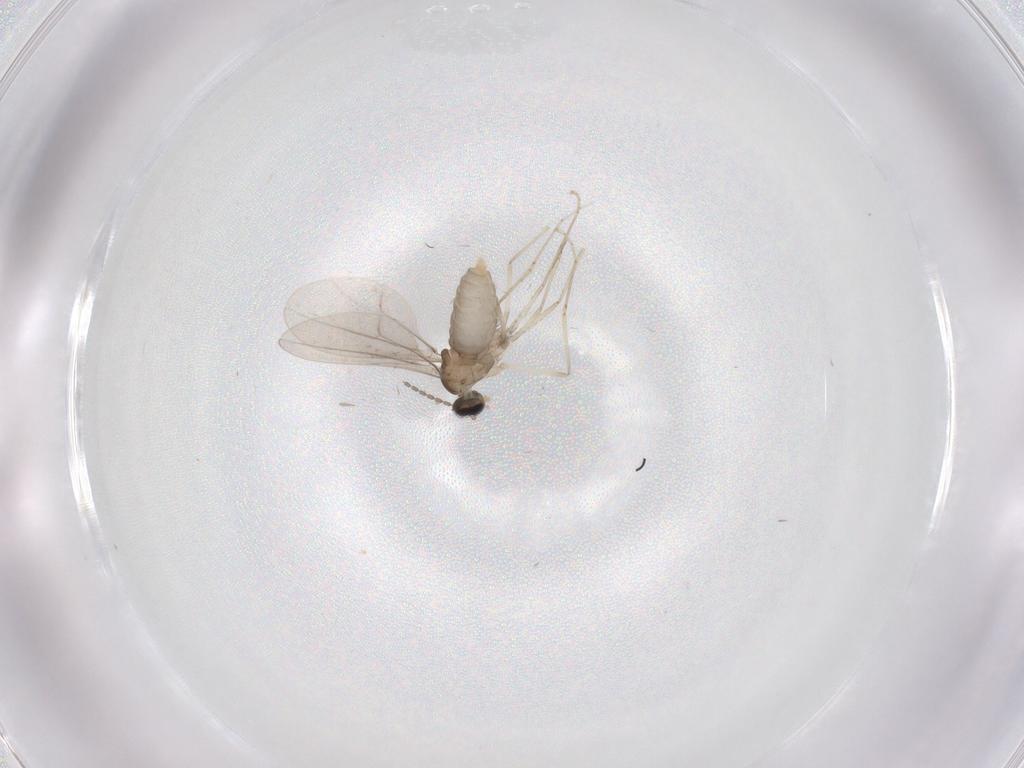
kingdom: Animalia
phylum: Arthropoda
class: Insecta
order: Diptera
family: Cecidomyiidae
